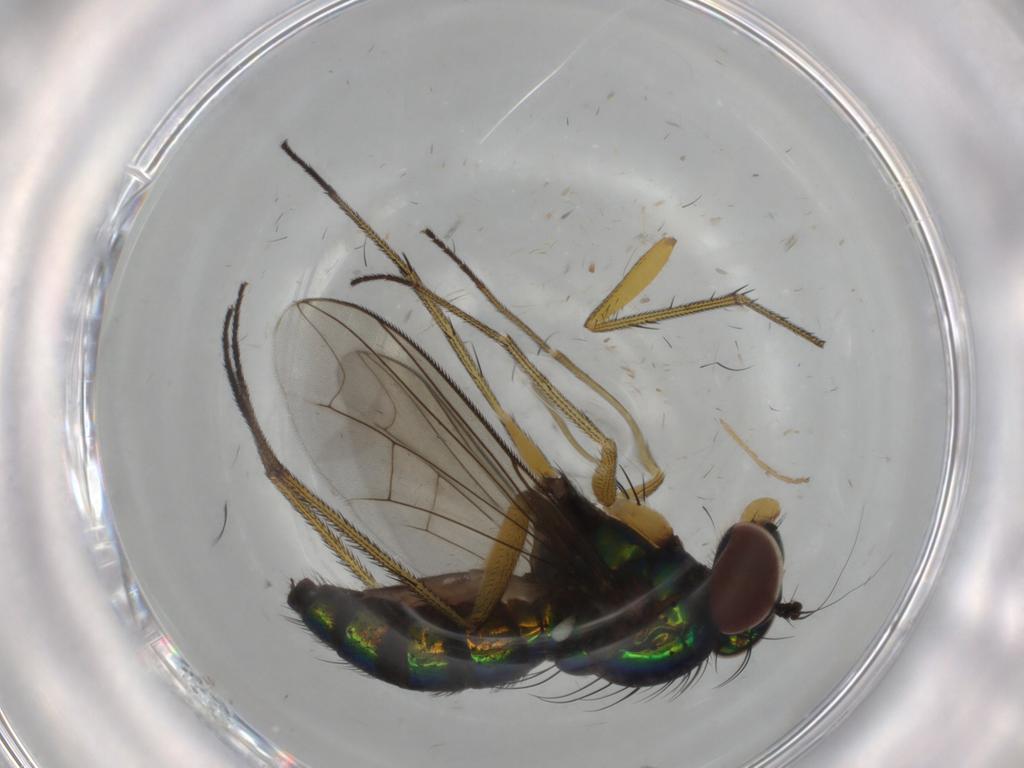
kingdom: Animalia
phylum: Arthropoda
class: Insecta
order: Diptera
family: Dolichopodidae
